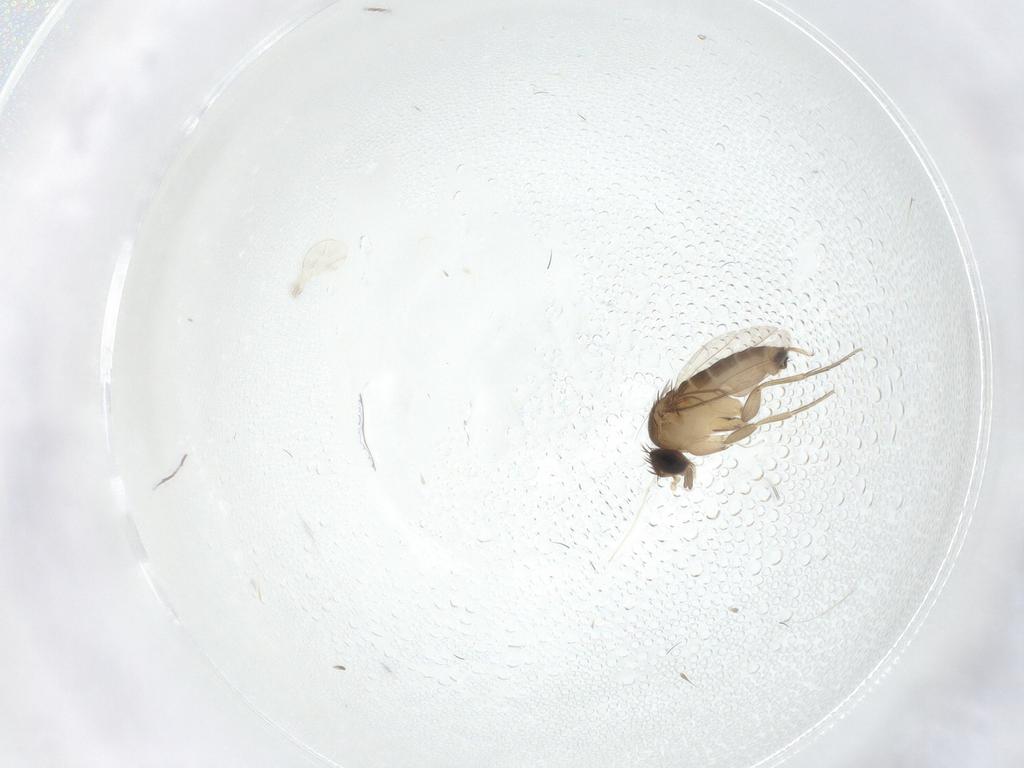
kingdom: Animalia
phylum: Arthropoda
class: Insecta
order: Diptera
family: Phoridae
